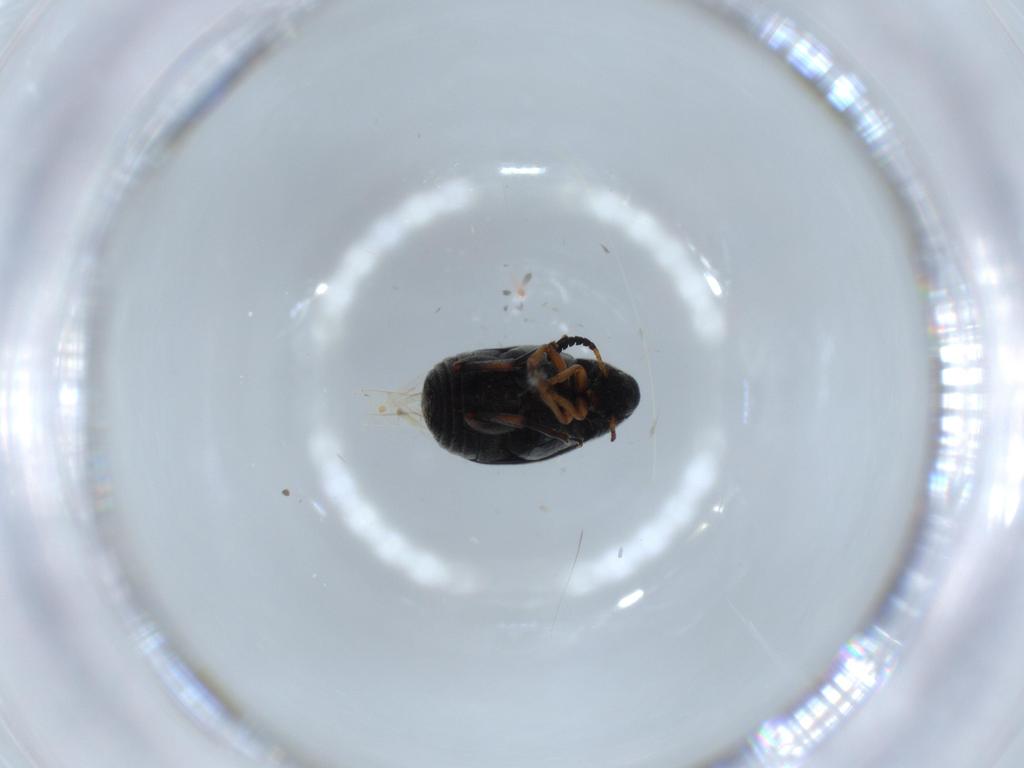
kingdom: Animalia
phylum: Arthropoda
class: Insecta
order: Coleoptera
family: Chrysomelidae
